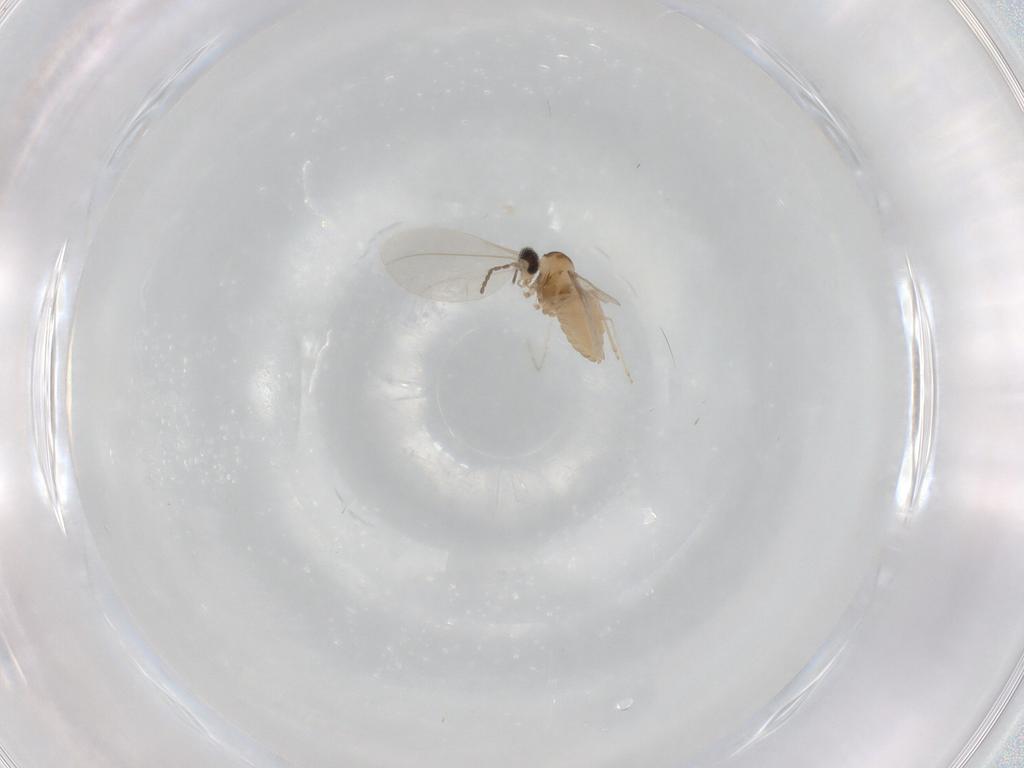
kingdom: Animalia
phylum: Arthropoda
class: Insecta
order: Diptera
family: Cecidomyiidae
